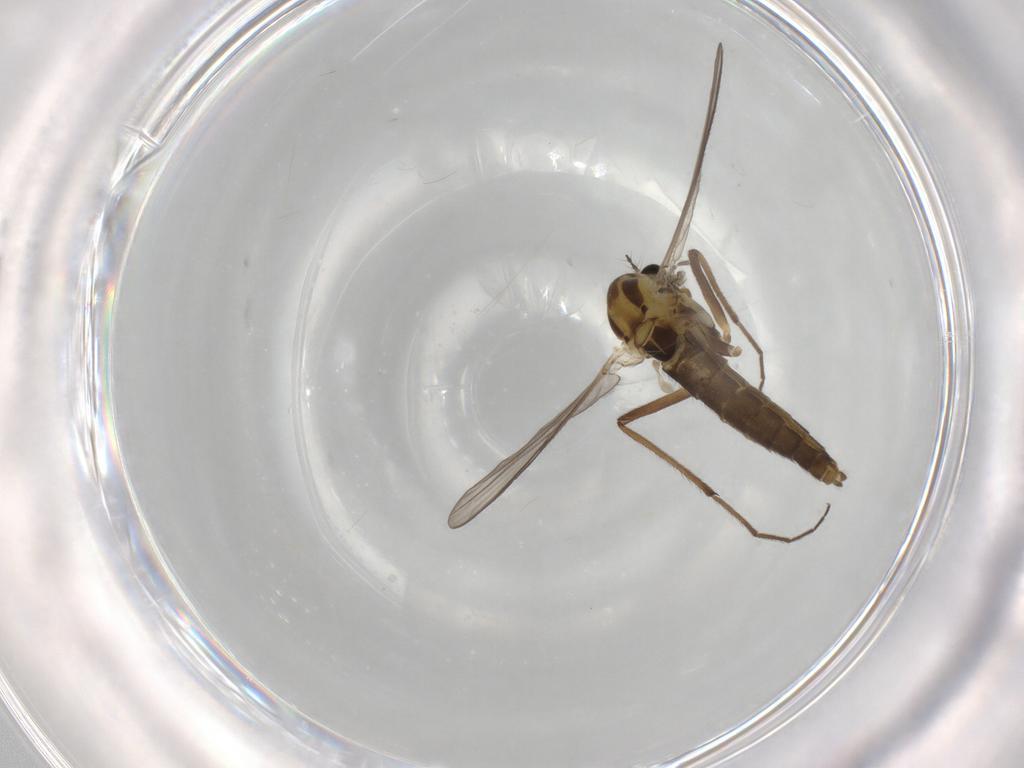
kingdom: Animalia
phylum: Arthropoda
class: Insecta
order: Diptera
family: Chironomidae
